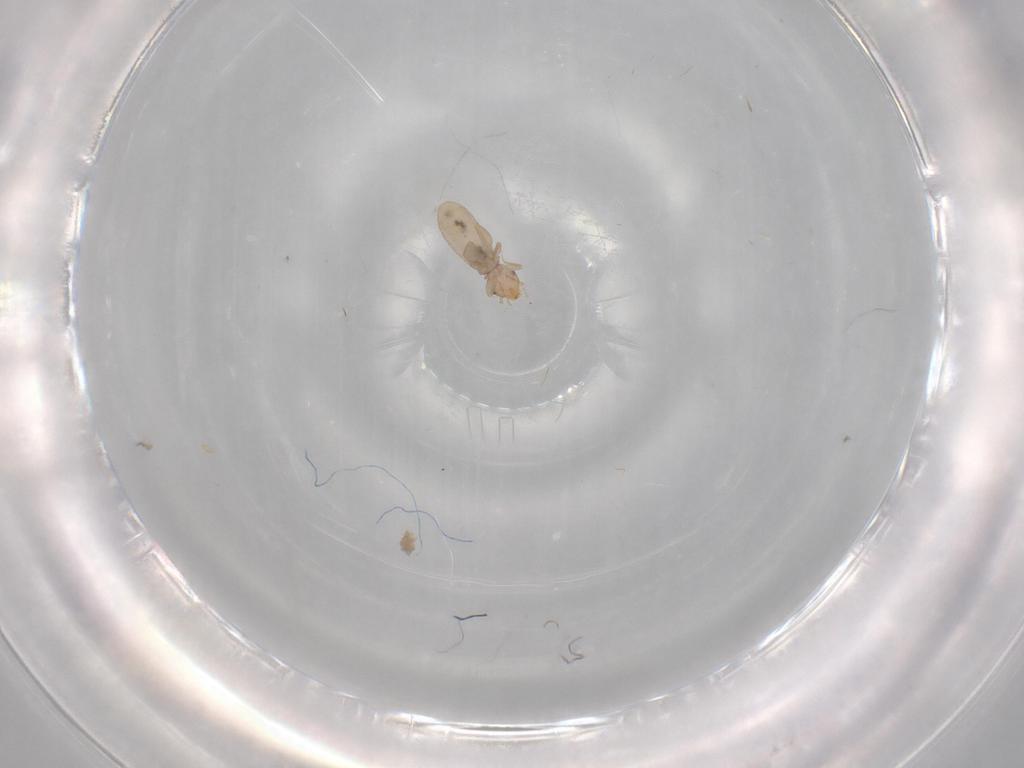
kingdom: Animalia
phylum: Arthropoda
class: Insecta
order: Psocodea
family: Liposcelididae
